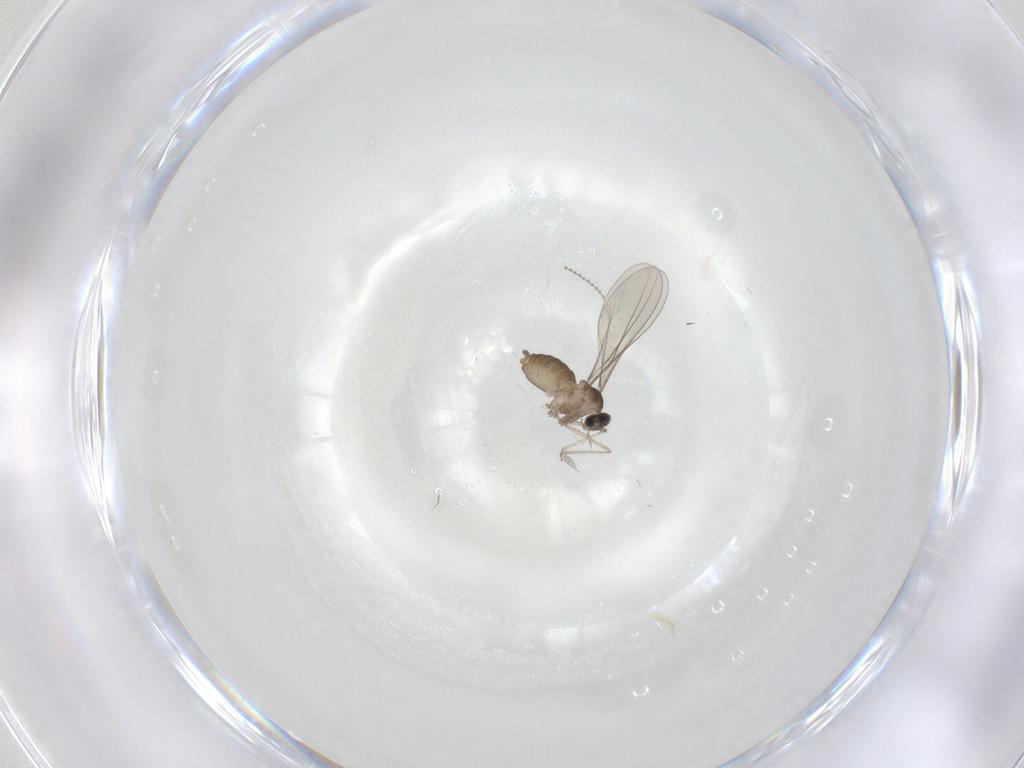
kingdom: Animalia
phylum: Arthropoda
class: Insecta
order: Diptera
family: Cecidomyiidae
